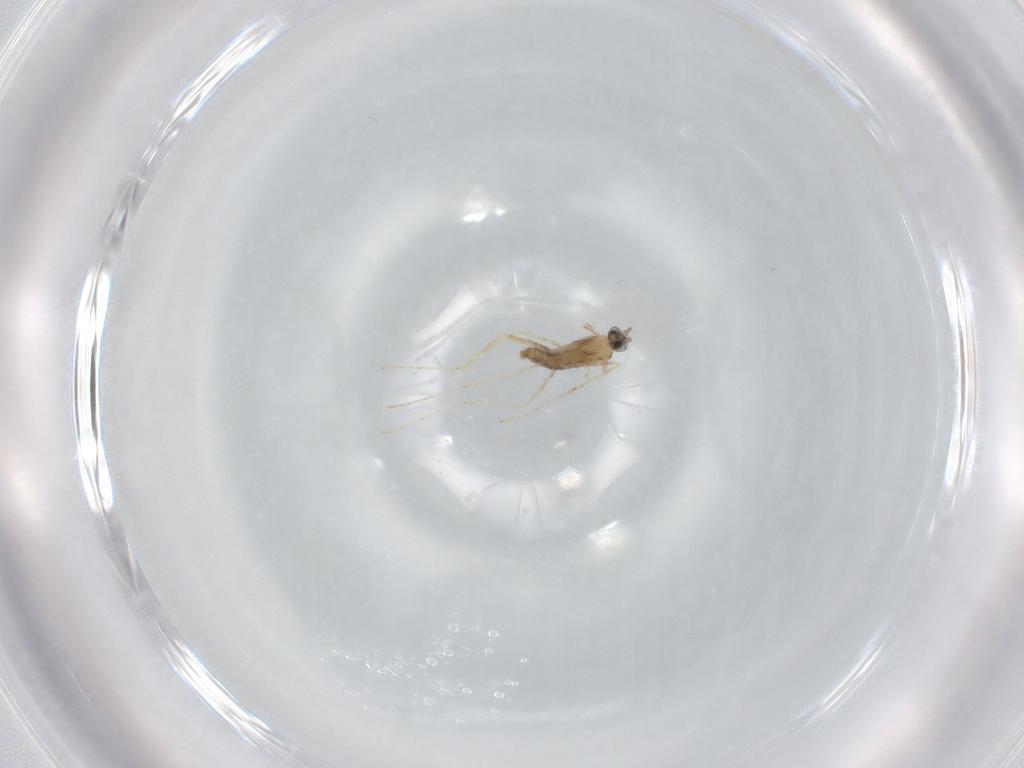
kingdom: Animalia
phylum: Arthropoda
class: Insecta
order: Diptera
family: Cecidomyiidae
